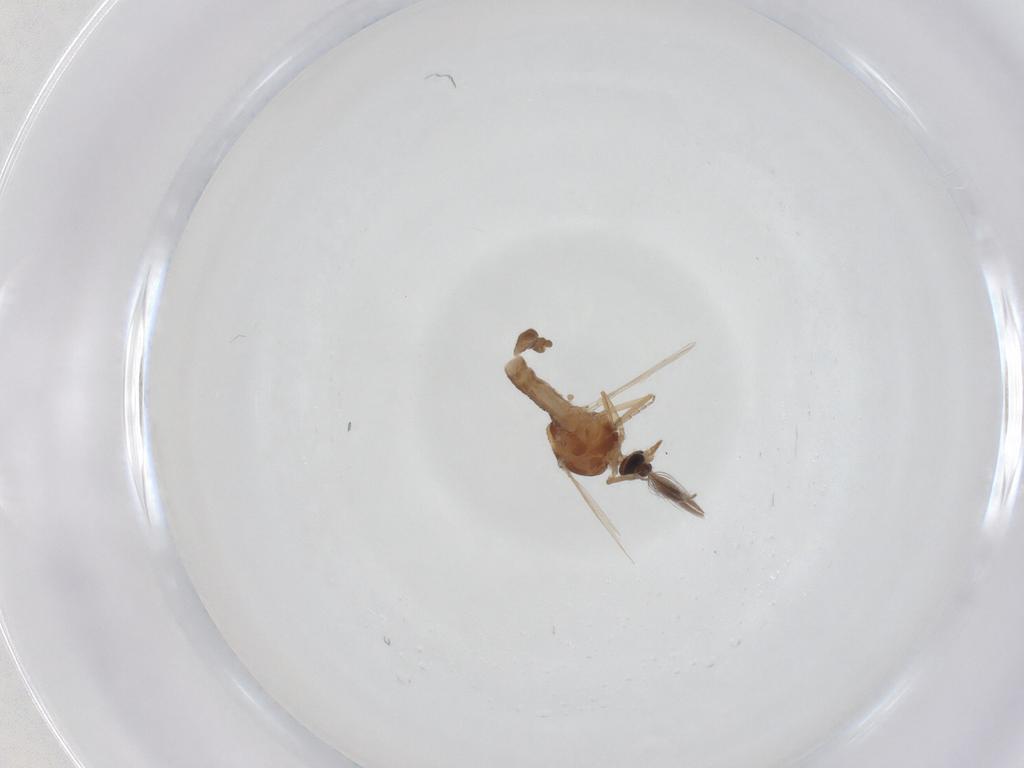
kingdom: Animalia
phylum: Arthropoda
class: Insecta
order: Diptera
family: Ceratopogonidae
